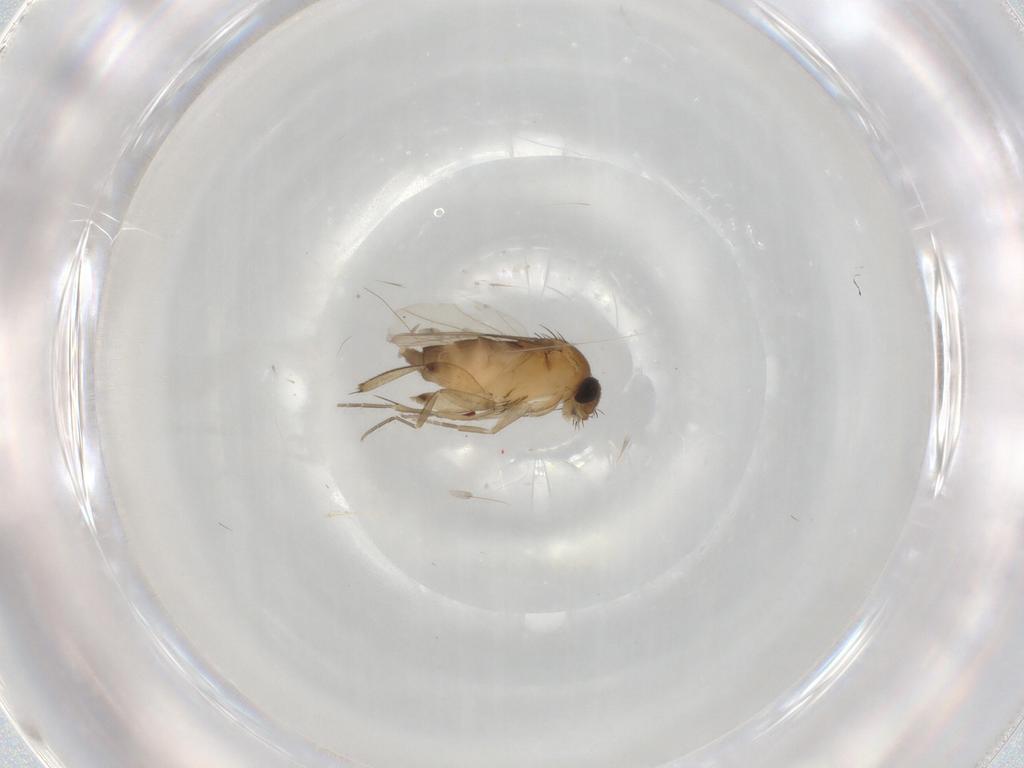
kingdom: Animalia
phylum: Arthropoda
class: Insecta
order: Diptera
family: Phoridae
